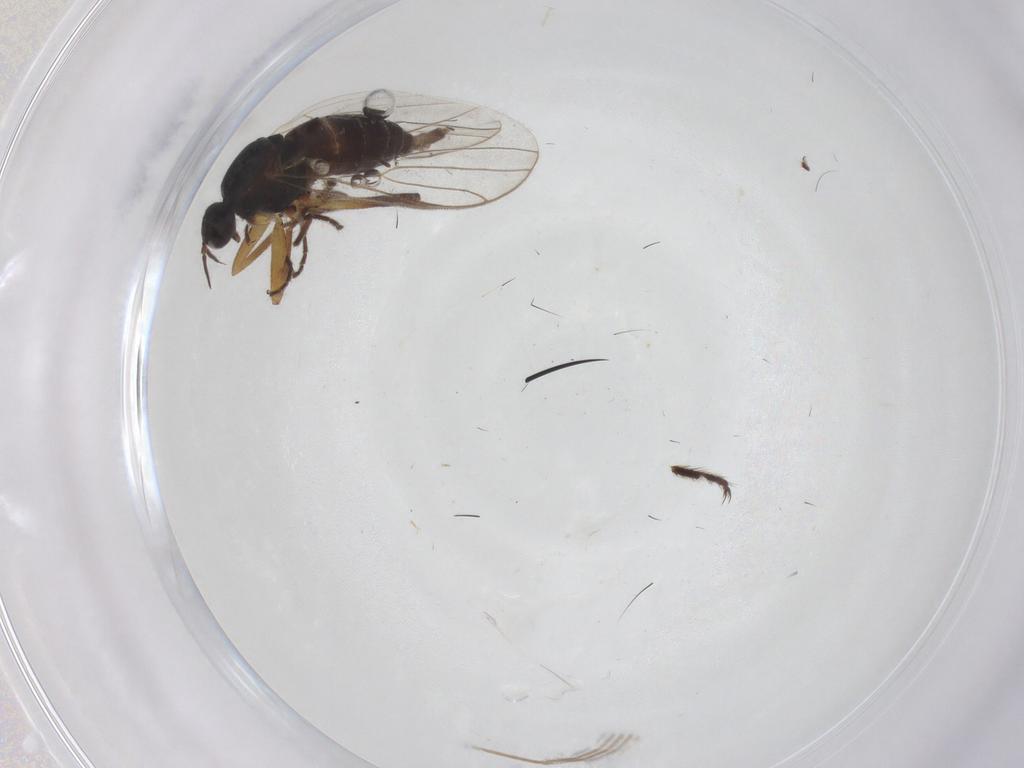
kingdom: Animalia
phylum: Arthropoda
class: Insecta
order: Diptera
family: Hybotidae
